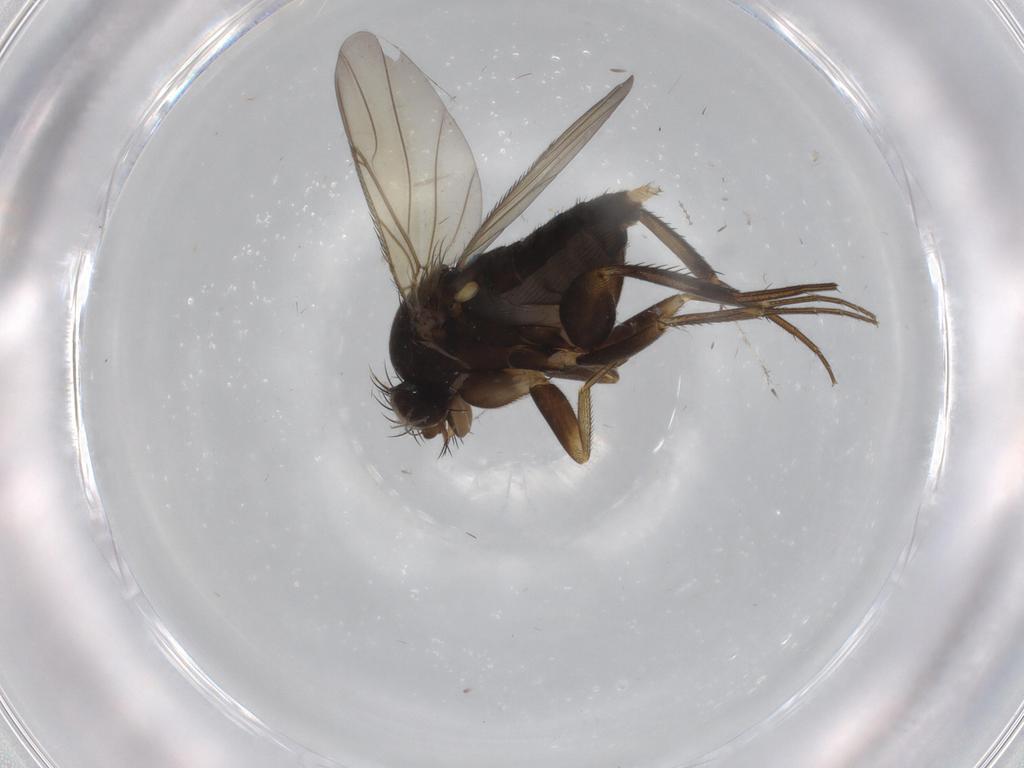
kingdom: Animalia
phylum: Arthropoda
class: Insecta
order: Diptera
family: Phoridae
